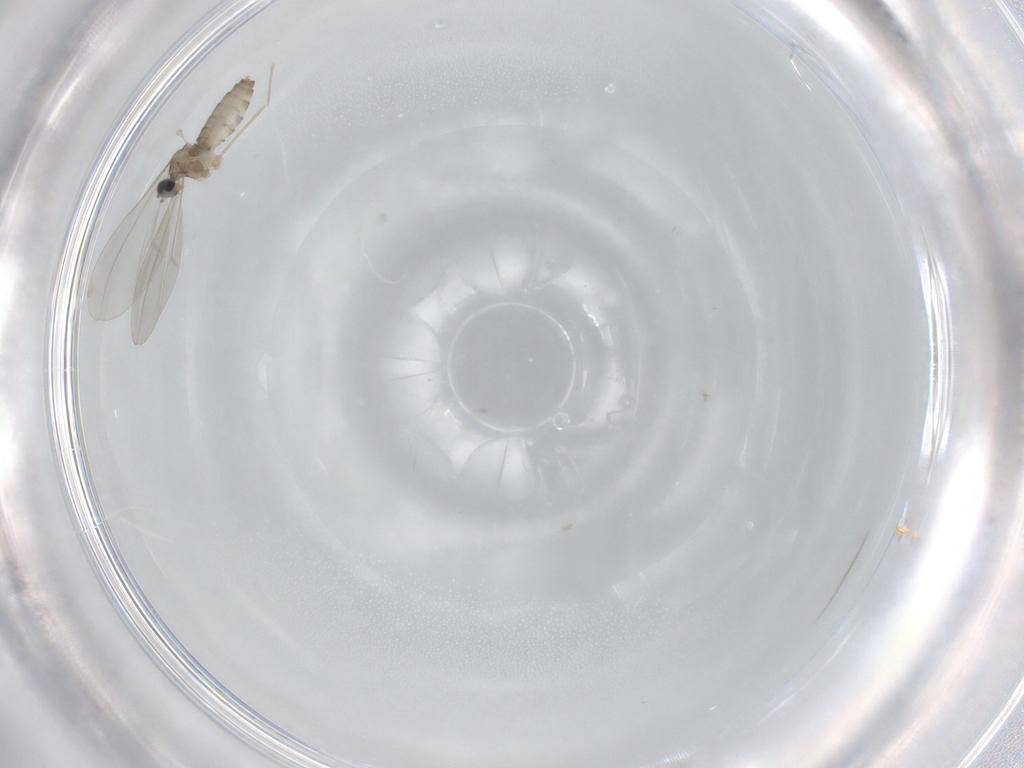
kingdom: Animalia
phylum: Arthropoda
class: Insecta
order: Diptera
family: Cecidomyiidae
